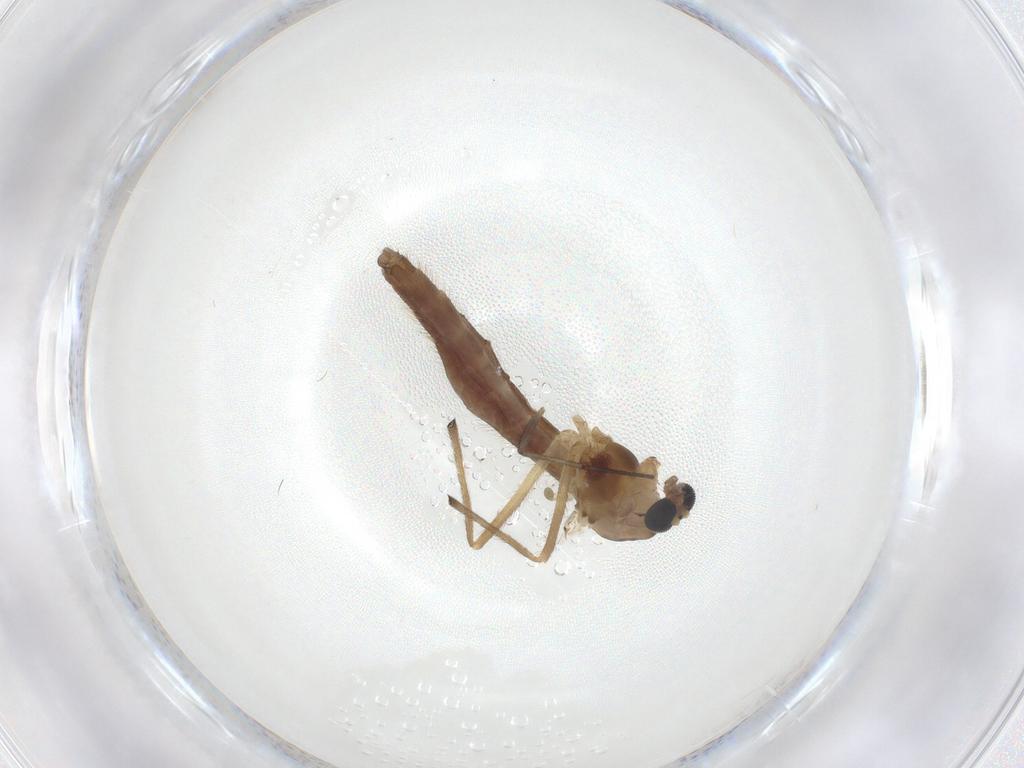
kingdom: Animalia
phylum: Arthropoda
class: Insecta
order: Diptera
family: Chironomidae
